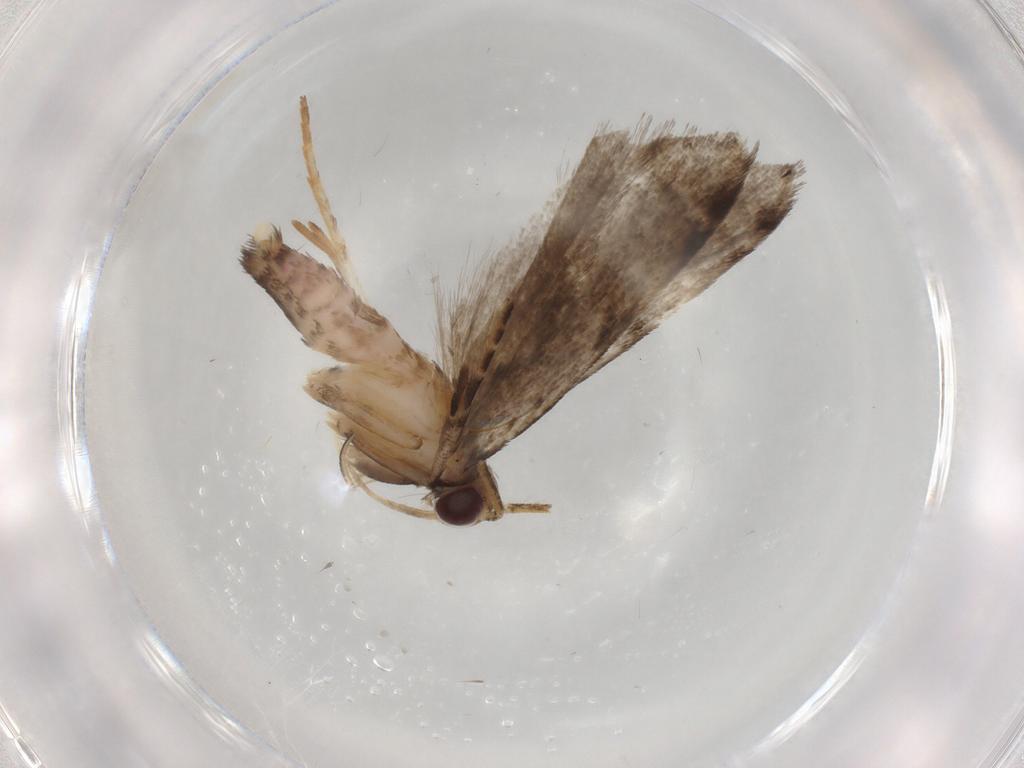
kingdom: Animalia
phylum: Arthropoda
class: Insecta
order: Lepidoptera
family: Gelechiidae
